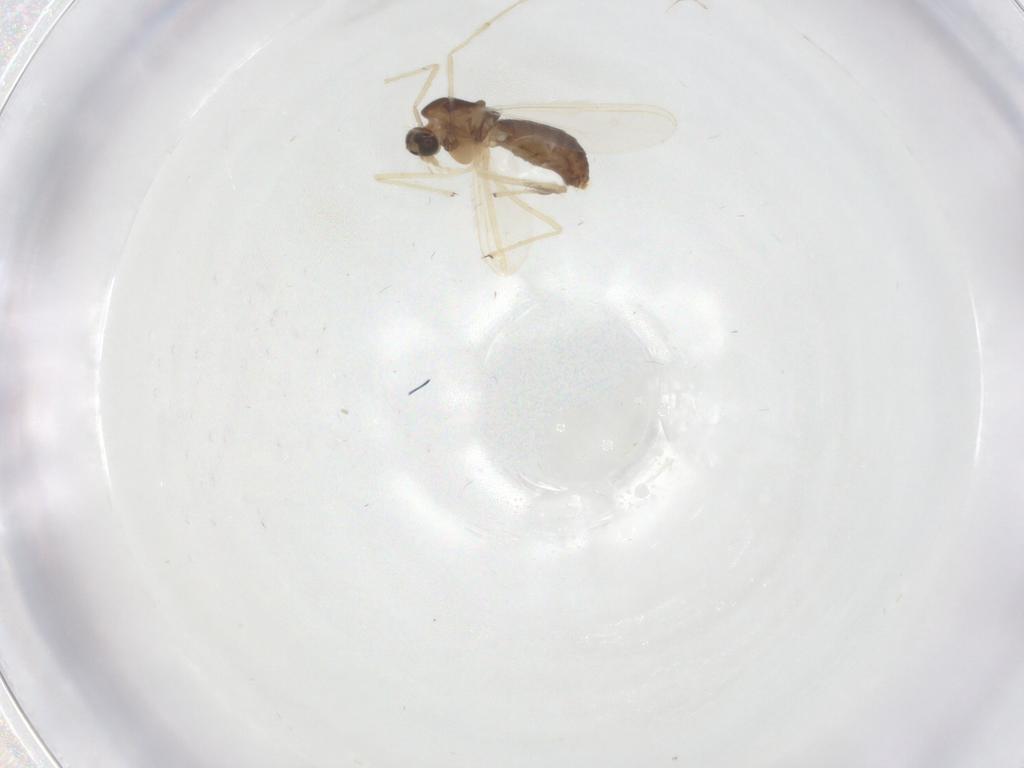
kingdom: Animalia
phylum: Arthropoda
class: Insecta
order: Diptera
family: Chironomidae
